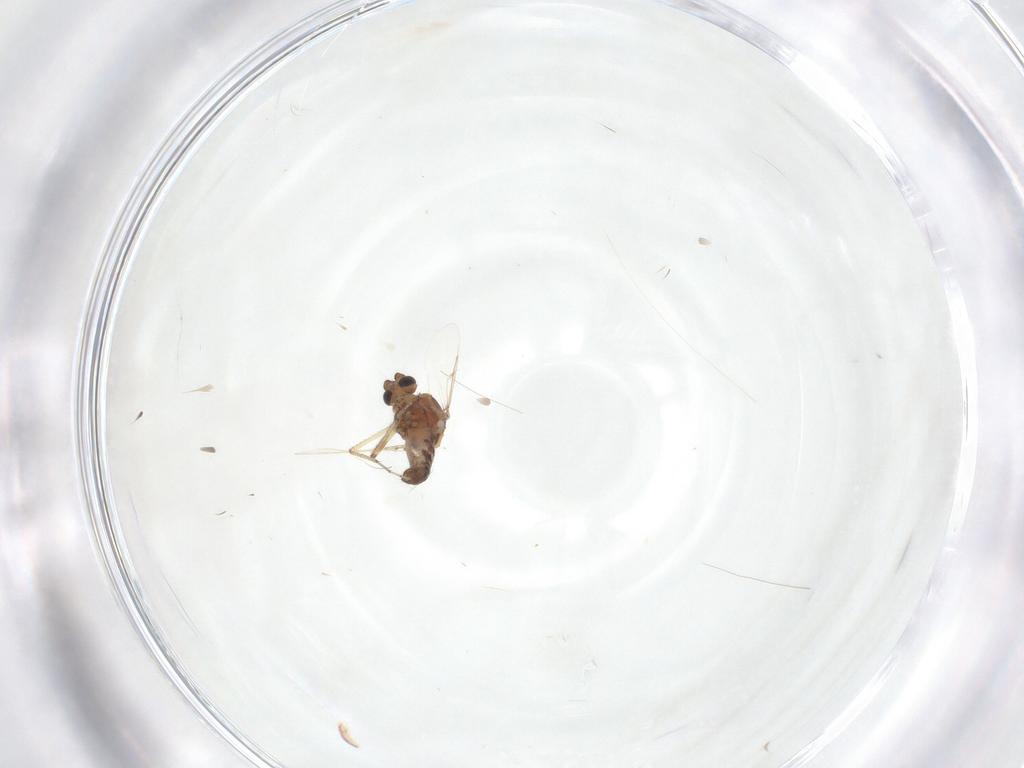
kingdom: Animalia
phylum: Arthropoda
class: Insecta
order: Diptera
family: Ceratopogonidae
